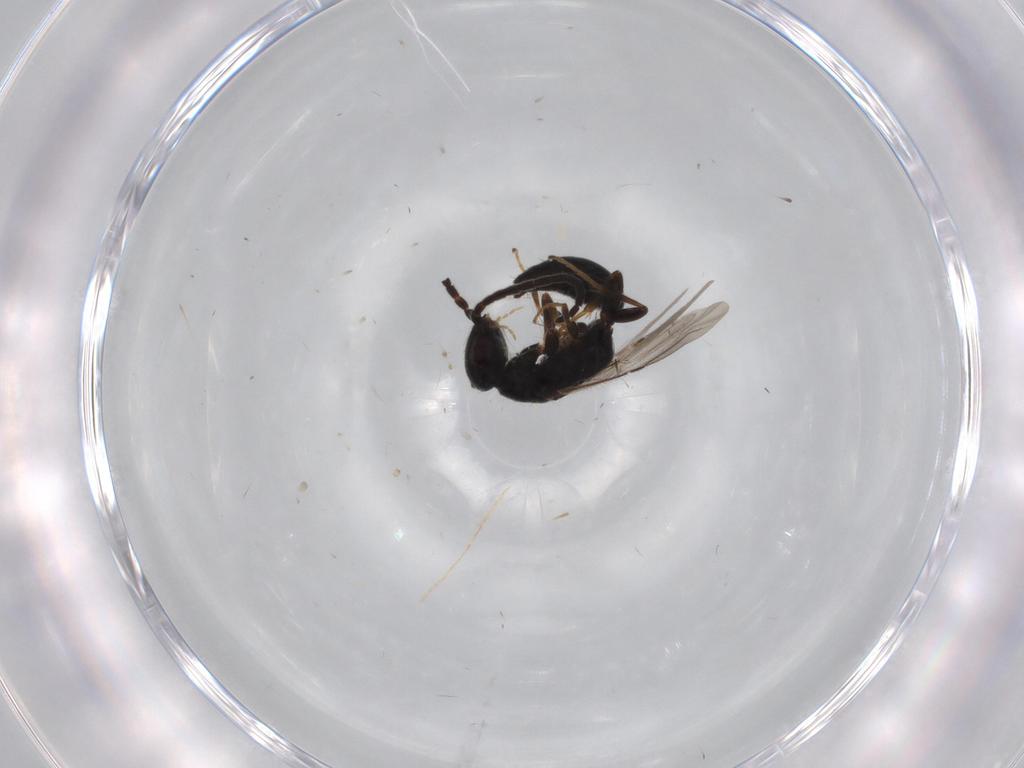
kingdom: Animalia
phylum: Arthropoda
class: Insecta
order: Hymenoptera
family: Bethylidae
